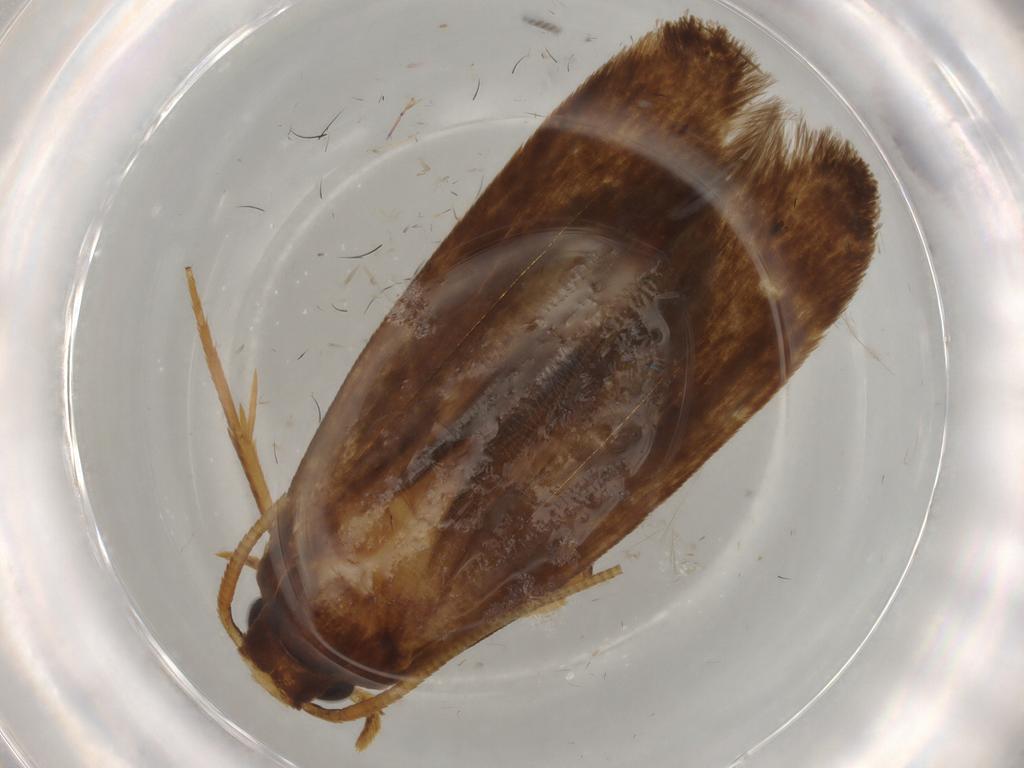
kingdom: Animalia
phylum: Arthropoda
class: Insecta
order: Lepidoptera
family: Tineidae
